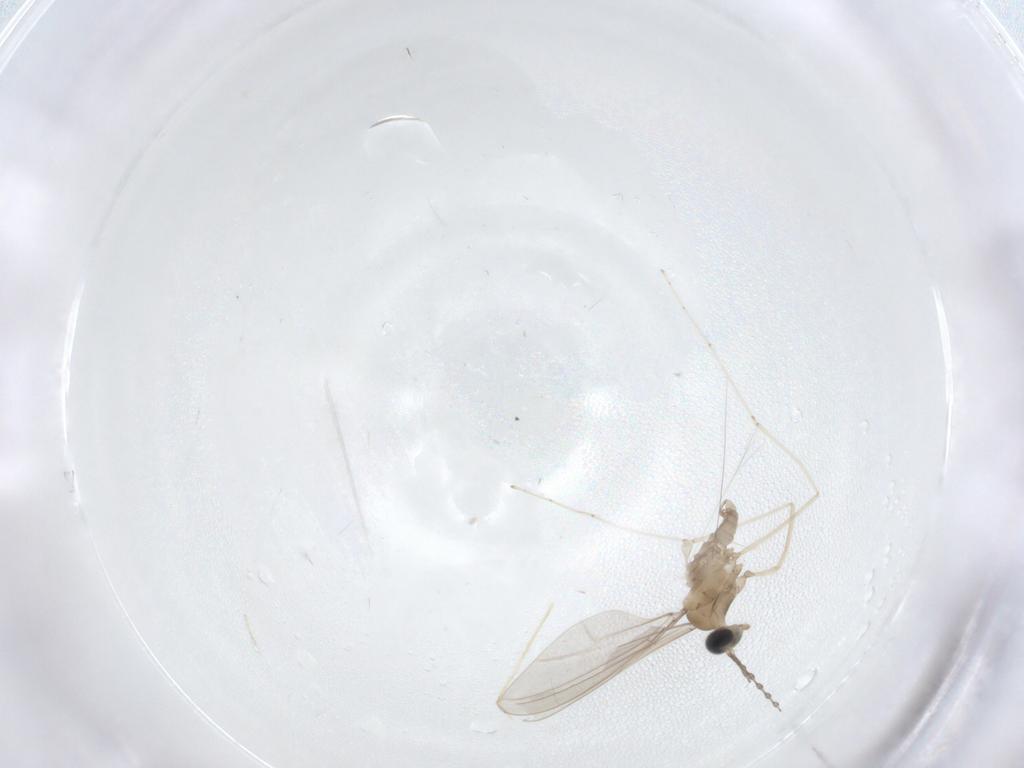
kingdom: Animalia
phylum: Arthropoda
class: Insecta
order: Diptera
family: Cecidomyiidae
